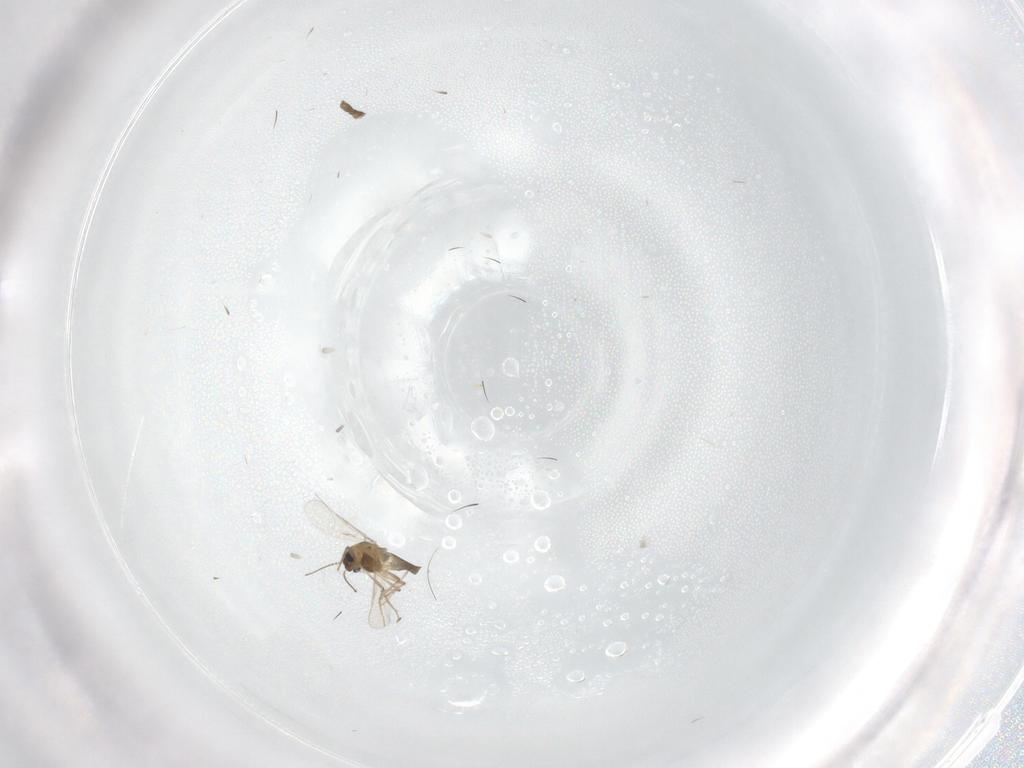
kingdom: Animalia
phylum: Arthropoda
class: Insecta
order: Diptera
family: Chironomidae
